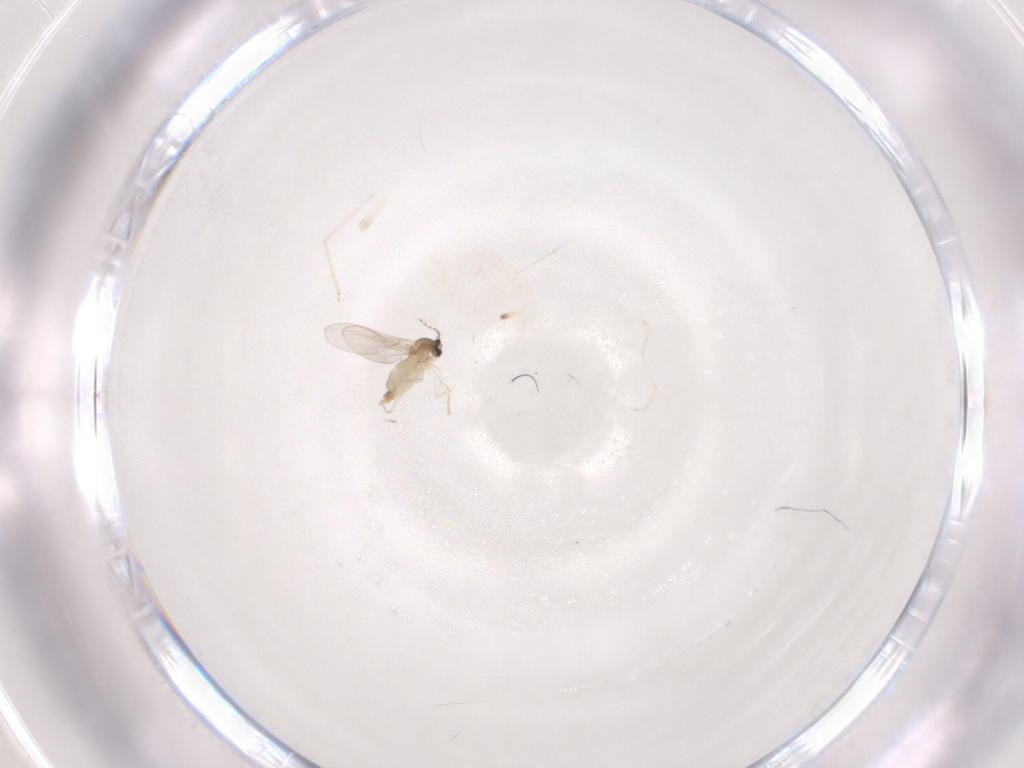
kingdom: Animalia
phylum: Arthropoda
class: Insecta
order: Diptera
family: Cecidomyiidae
